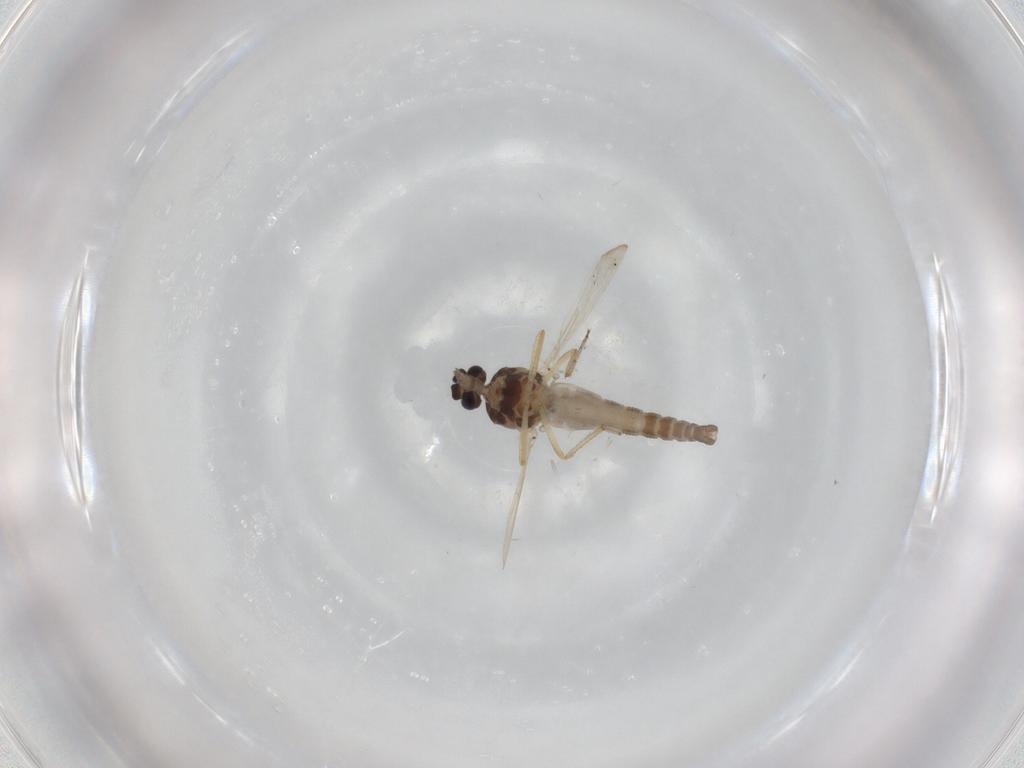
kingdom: Animalia
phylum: Arthropoda
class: Insecta
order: Diptera
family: Ceratopogonidae
